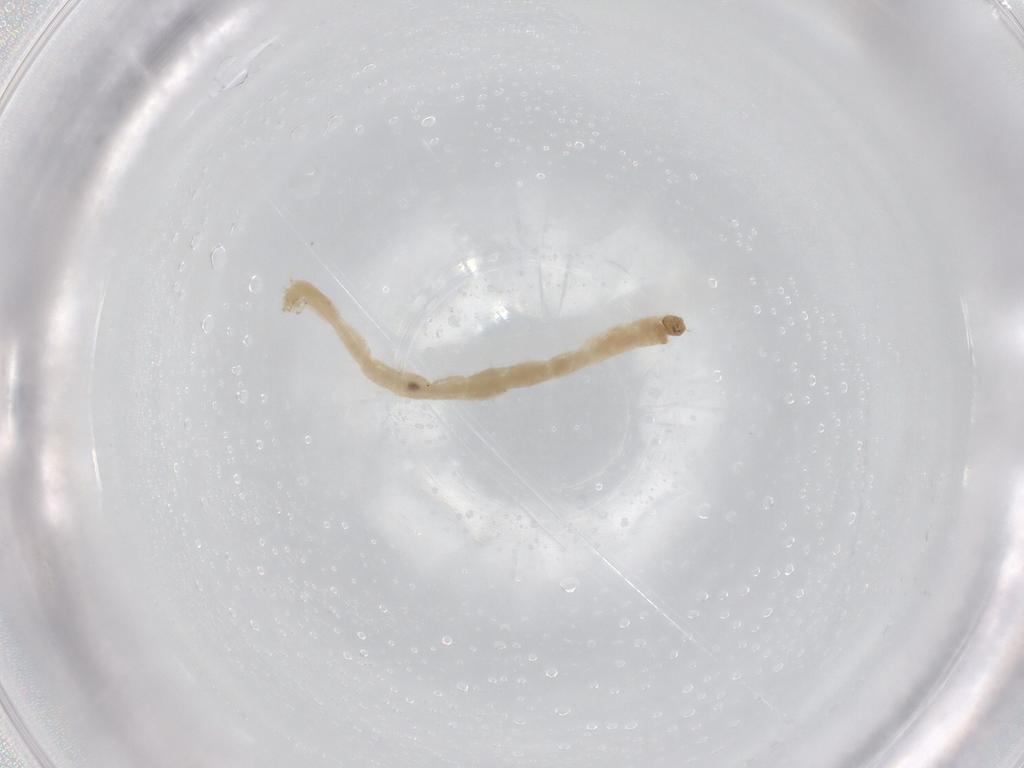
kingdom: Animalia
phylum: Arthropoda
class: Insecta
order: Diptera
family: Chironomidae
